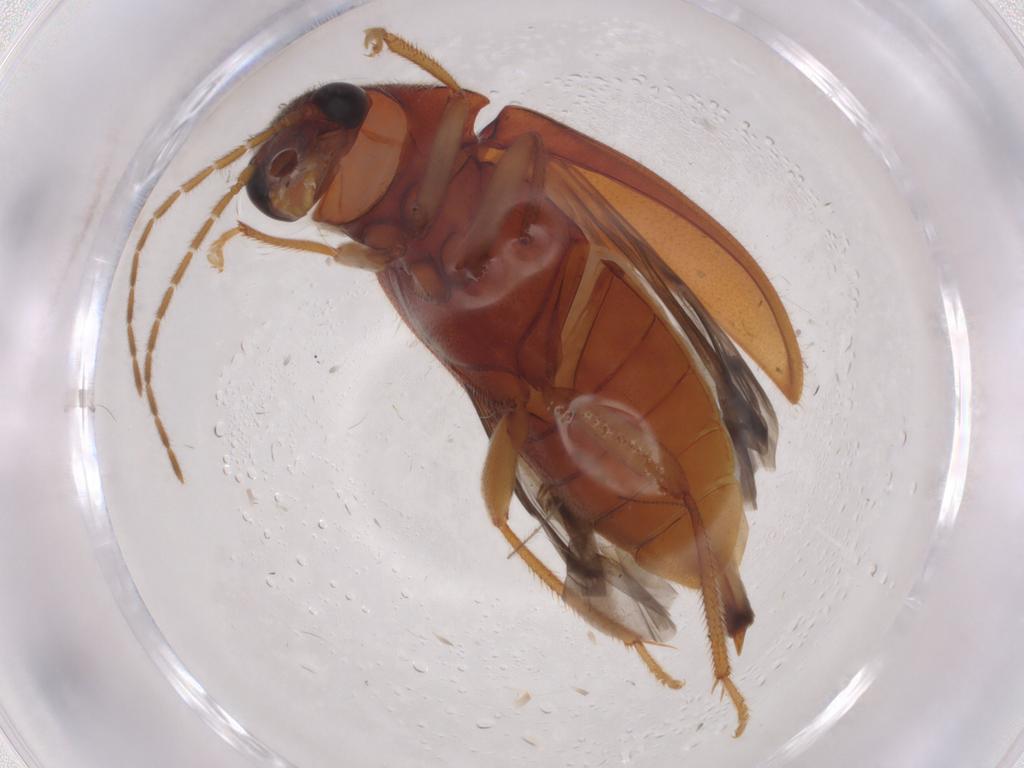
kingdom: Animalia
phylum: Arthropoda
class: Insecta
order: Coleoptera
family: Ptilodactylidae
